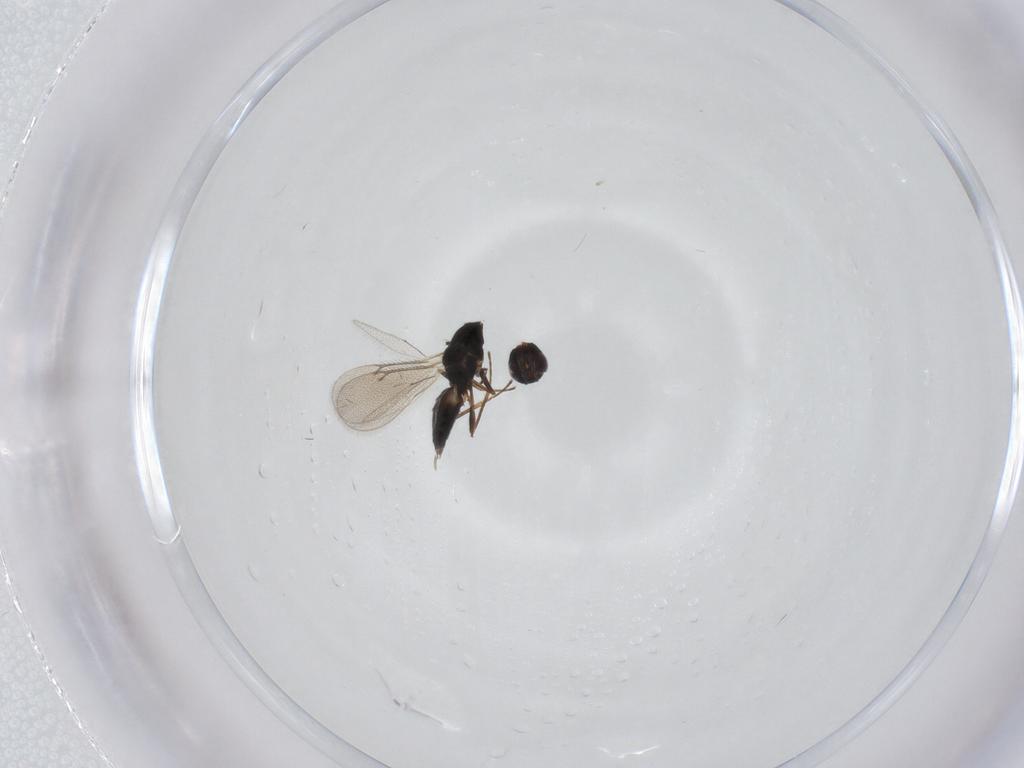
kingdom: Animalia
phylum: Arthropoda
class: Insecta
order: Hymenoptera
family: Eulophidae
